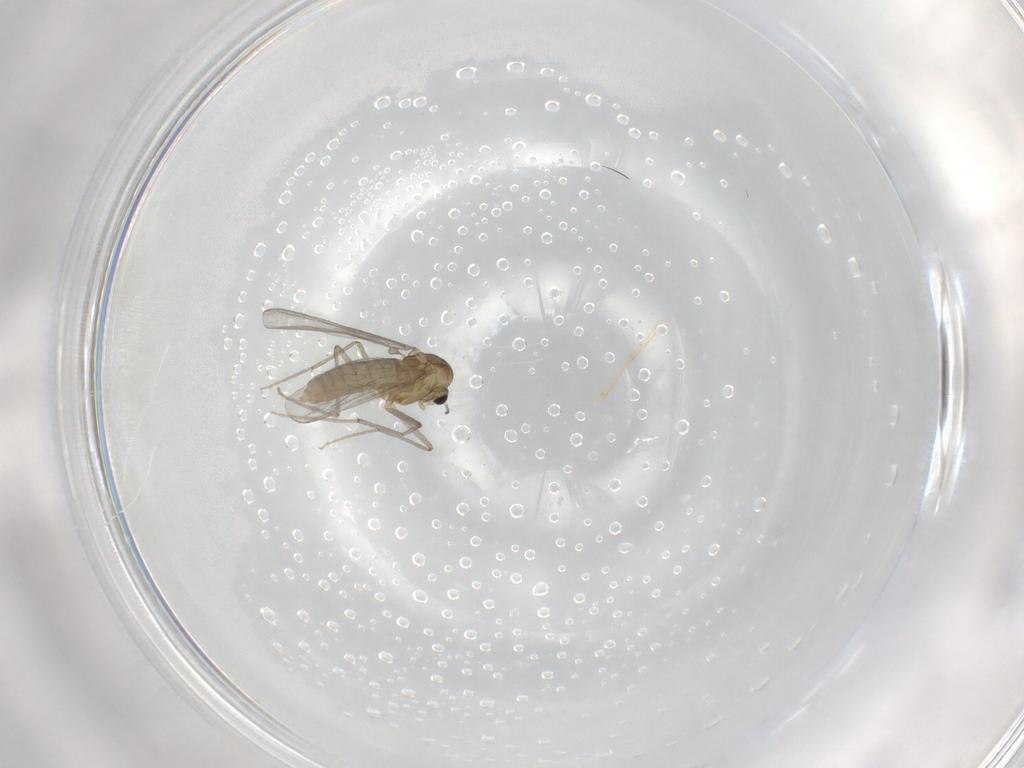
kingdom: Animalia
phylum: Arthropoda
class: Insecta
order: Diptera
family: Chironomidae
